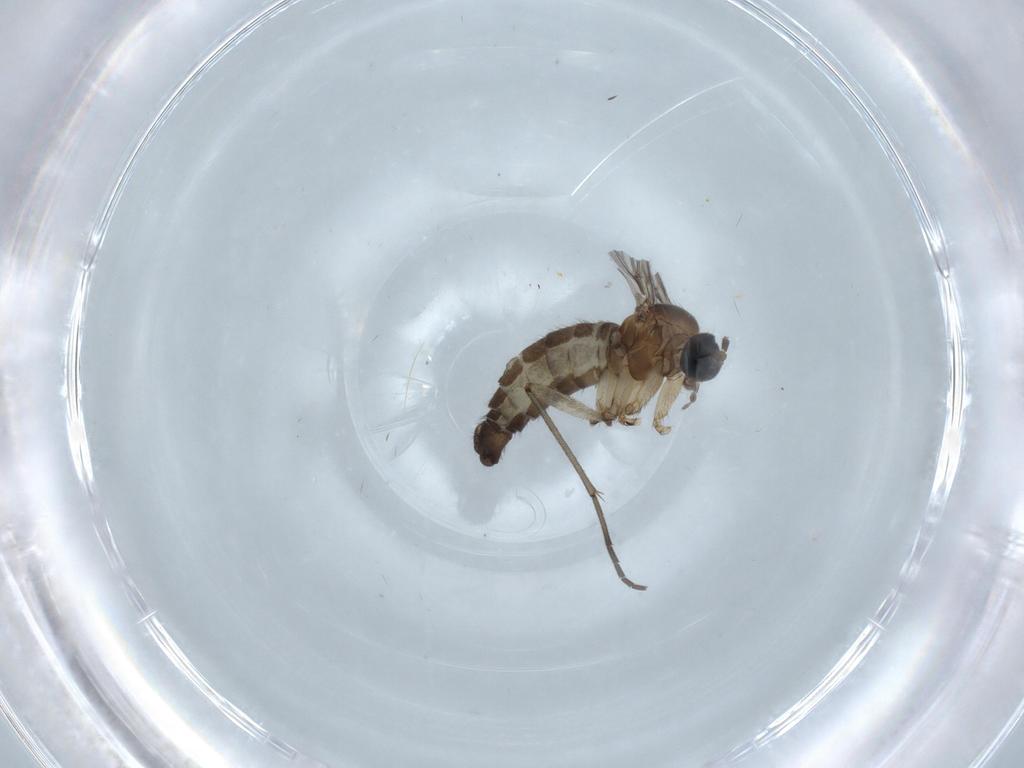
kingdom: Animalia
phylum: Arthropoda
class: Insecta
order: Diptera
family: Sciaridae
